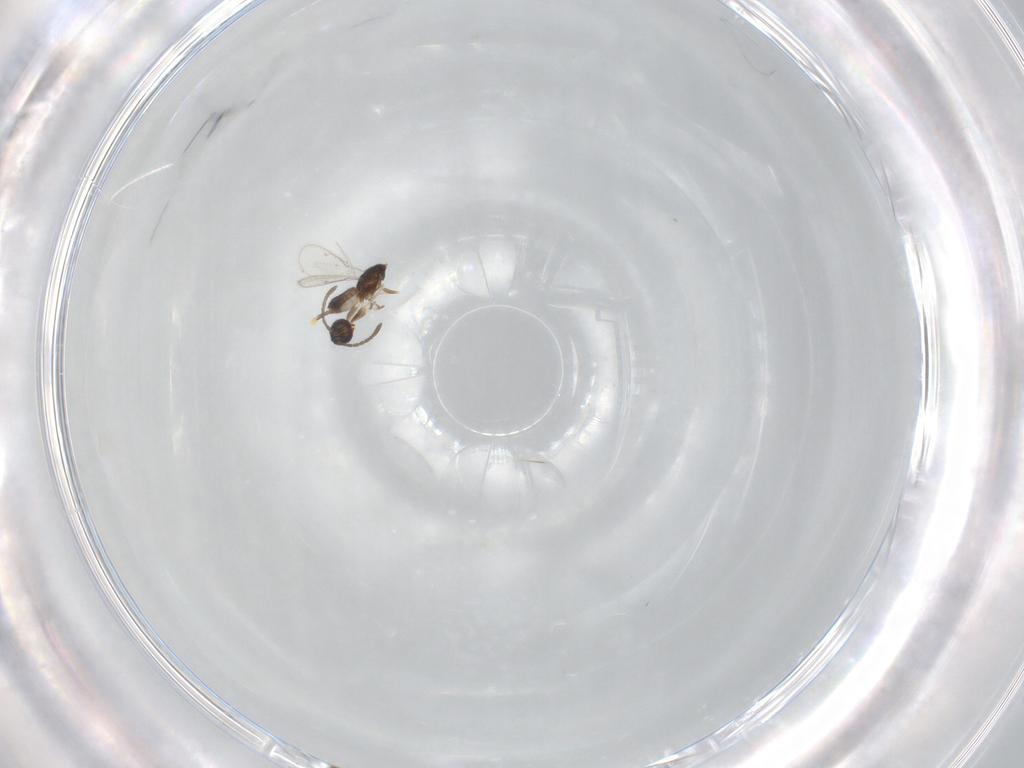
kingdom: Animalia
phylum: Arthropoda
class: Insecta
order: Hymenoptera
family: Eupelmidae
